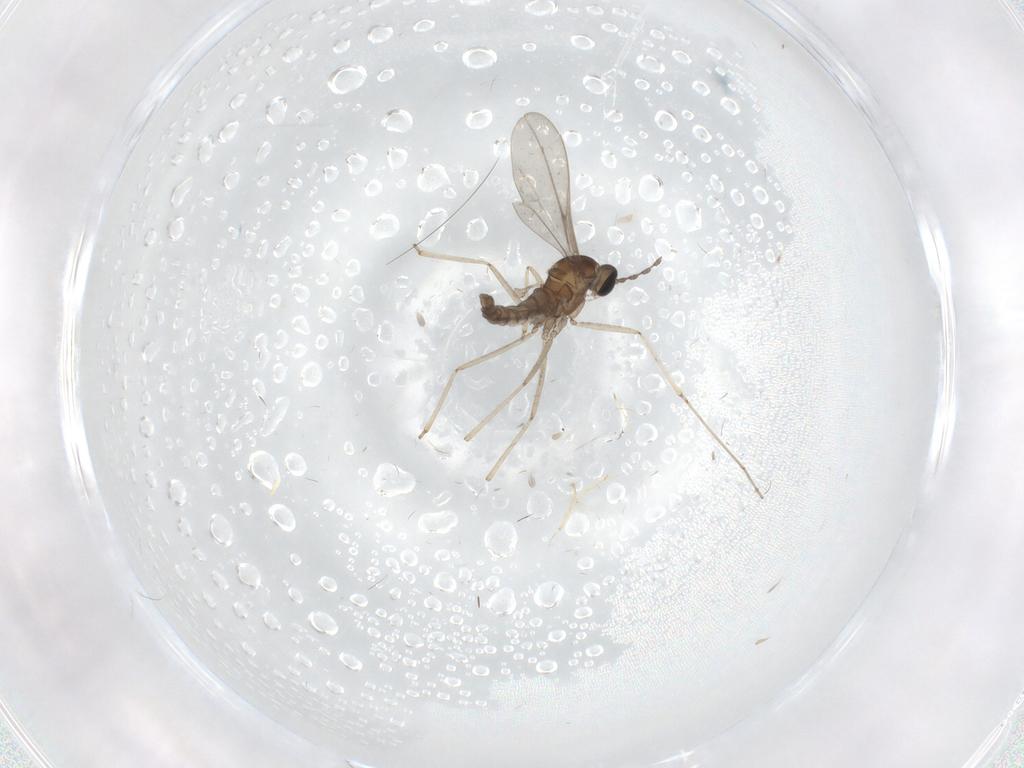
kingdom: Animalia
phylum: Arthropoda
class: Insecta
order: Diptera
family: Cecidomyiidae
